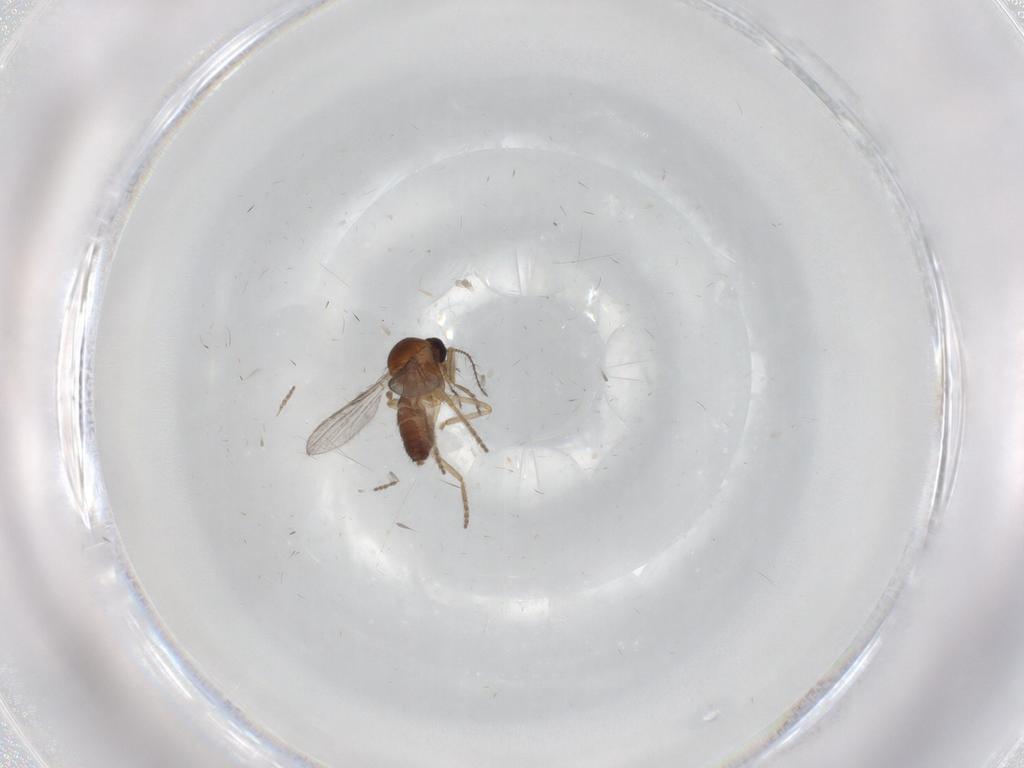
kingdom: Animalia
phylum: Arthropoda
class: Insecta
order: Diptera
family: Ceratopogonidae
